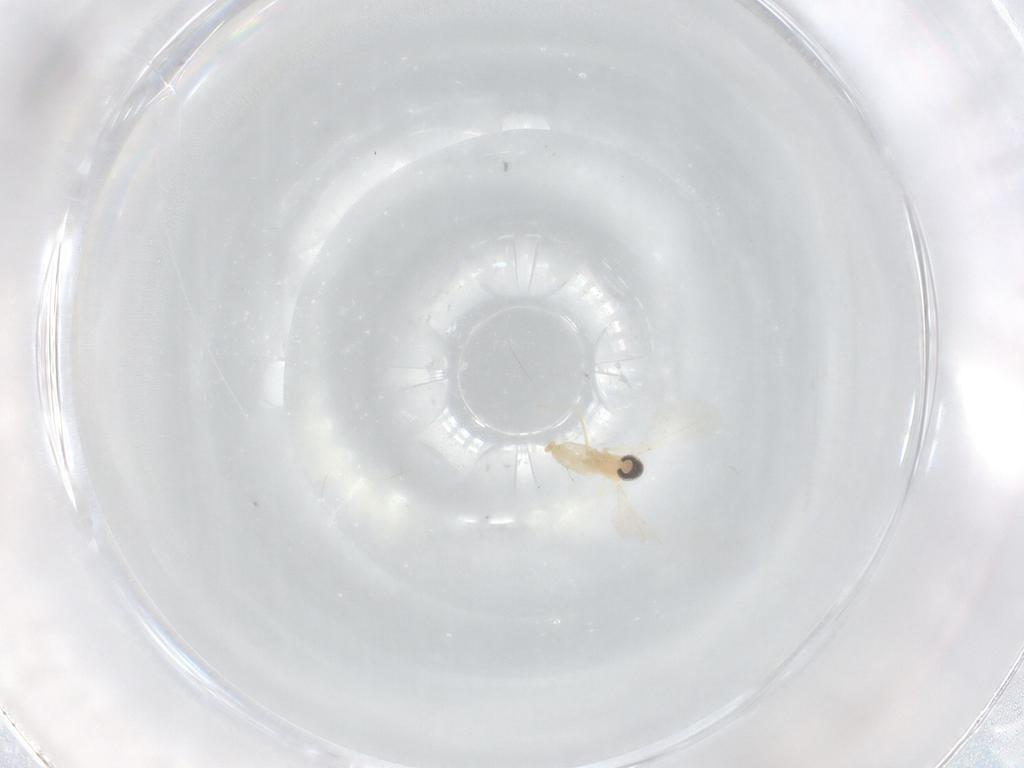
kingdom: Animalia
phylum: Arthropoda
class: Insecta
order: Diptera
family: Cecidomyiidae
